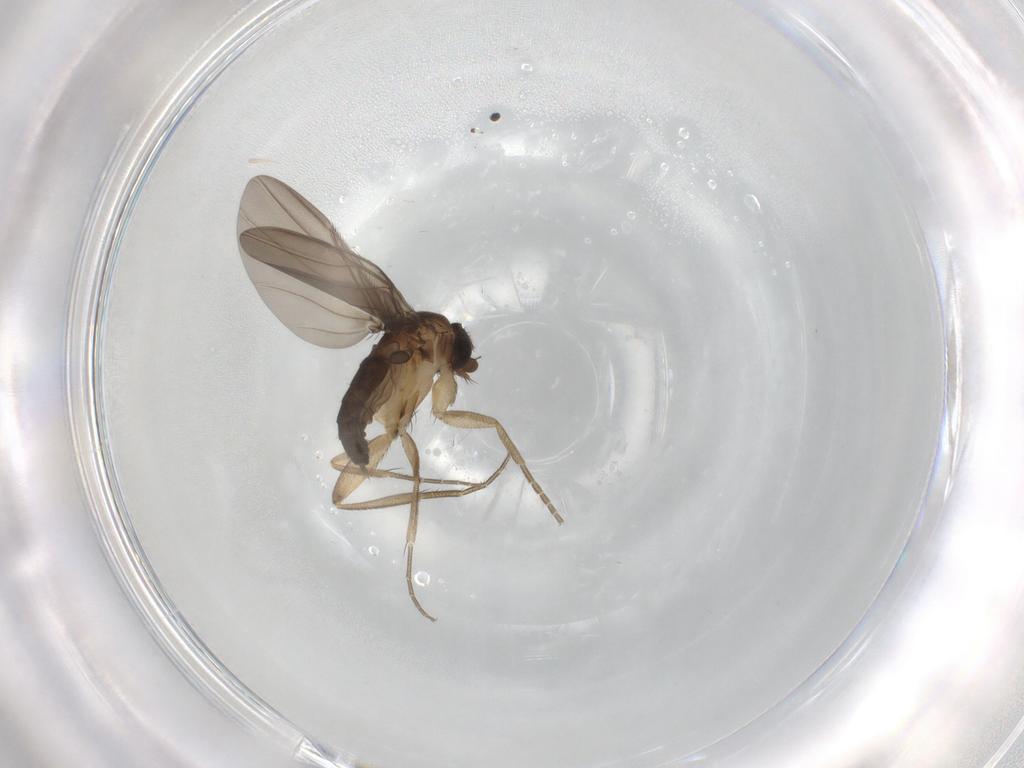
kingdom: Animalia
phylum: Arthropoda
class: Insecta
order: Diptera
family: Phoridae
